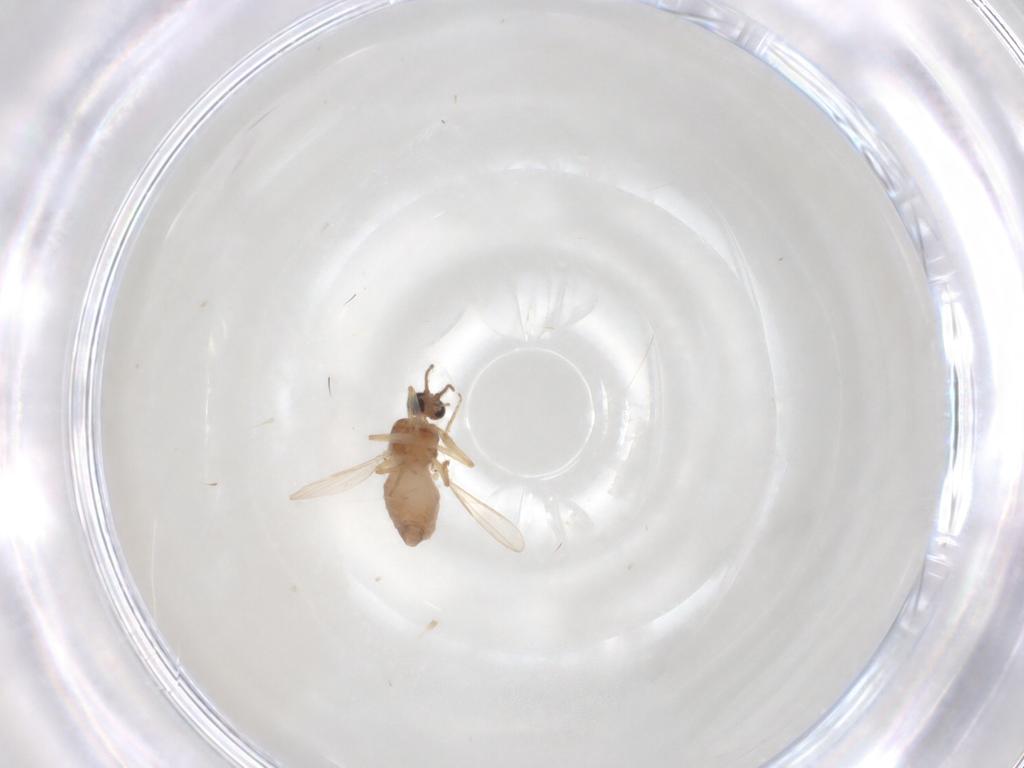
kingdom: Animalia
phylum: Arthropoda
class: Insecta
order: Diptera
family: Chloropidae
